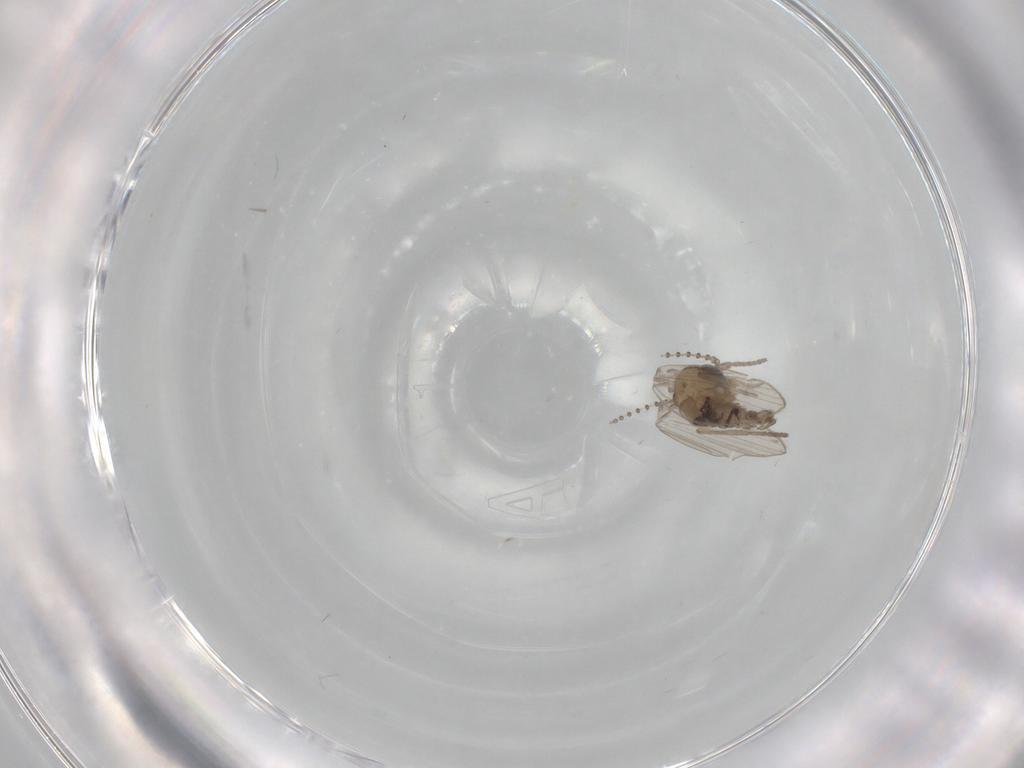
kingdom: Animalia
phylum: Arthropoda
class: Insecta
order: Diptera
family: Psychodidae
